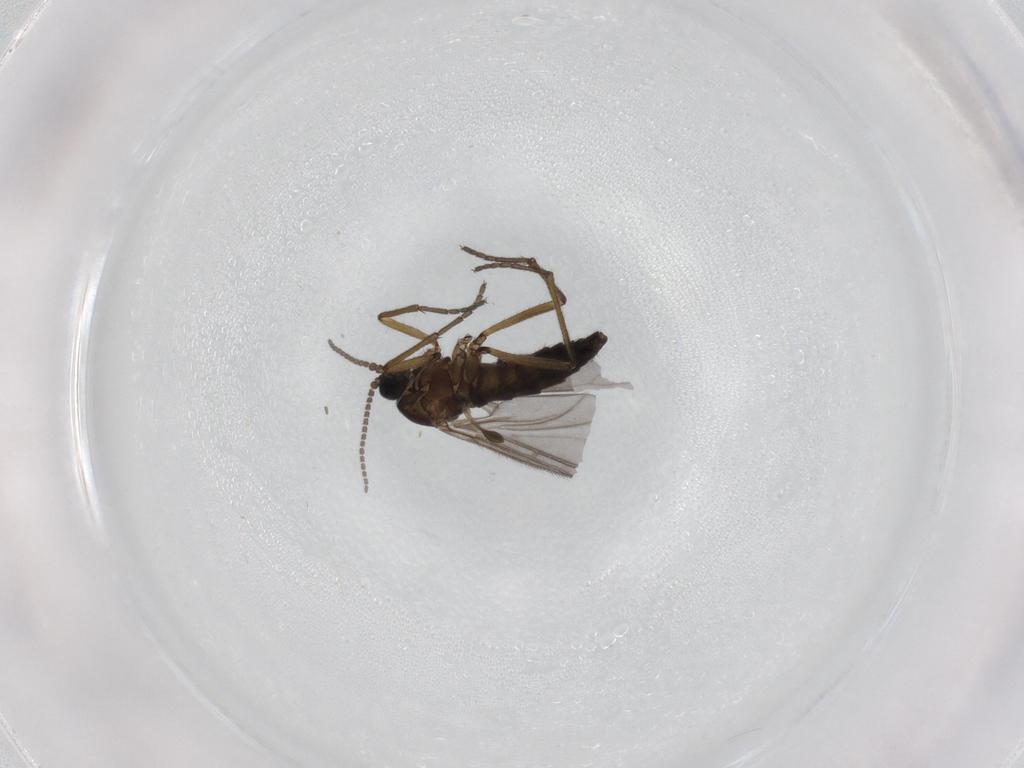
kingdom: Animalia
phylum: Arthropoda
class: Insecta
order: Diptera
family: Sciaridae
